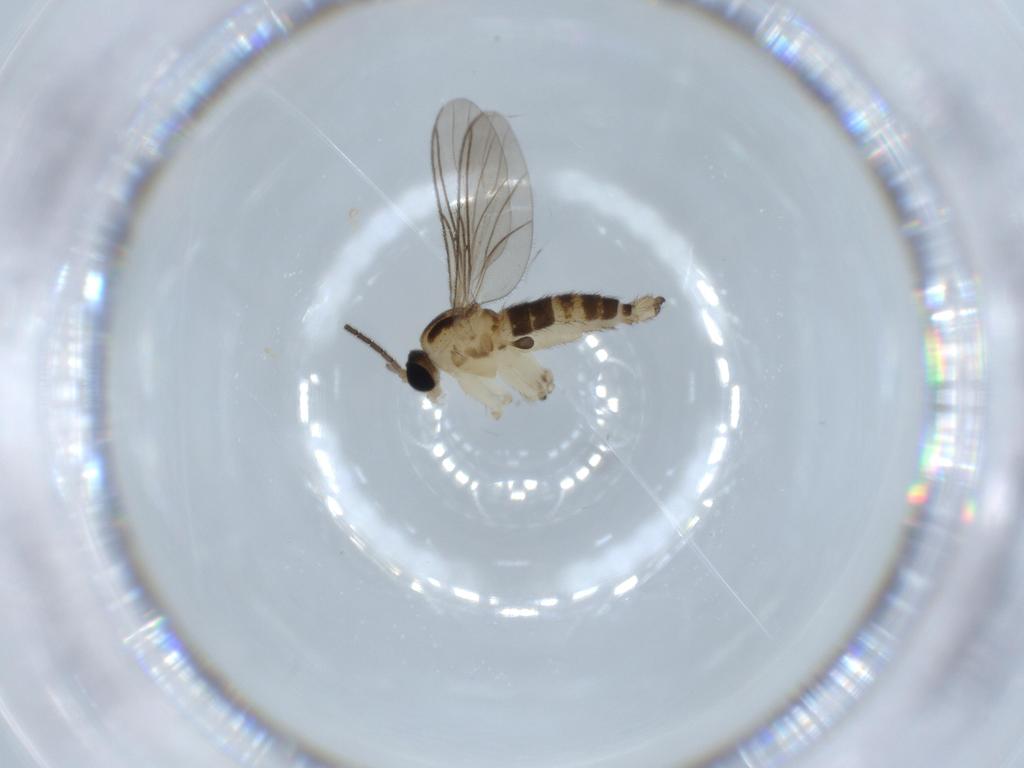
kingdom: Animalia
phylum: Arthropoda
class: Insecta
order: Diptera
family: Sciaridae
